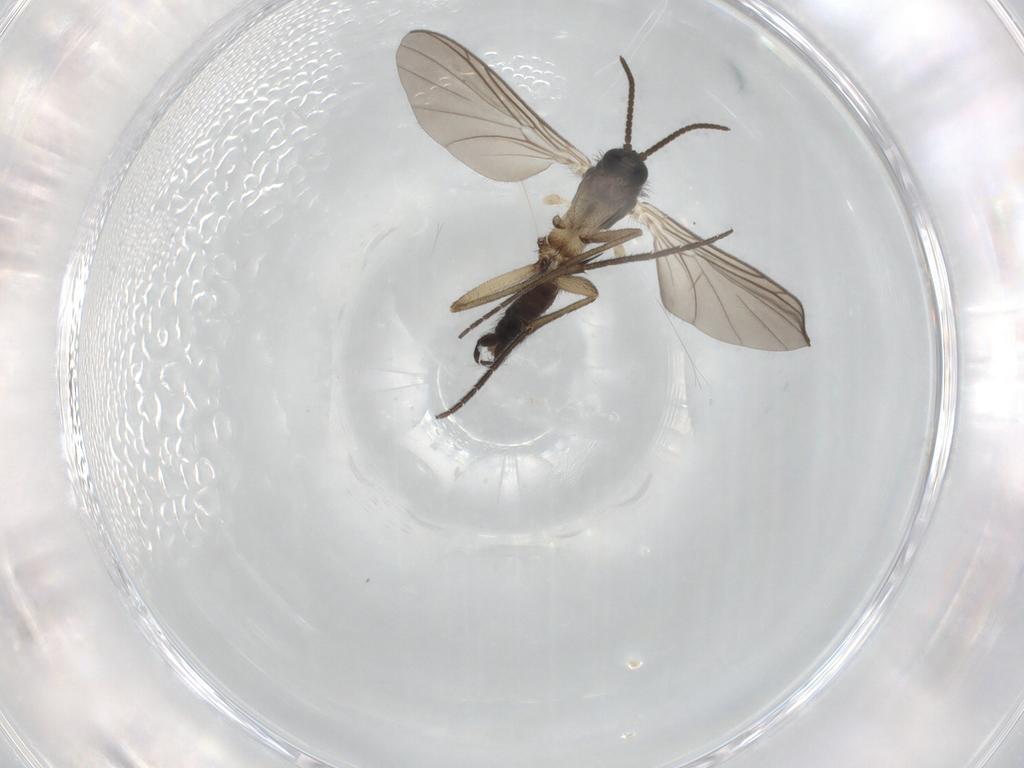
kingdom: Animalia
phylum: Arthropoda
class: Insecta
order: Diptera
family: Keroplatidae
